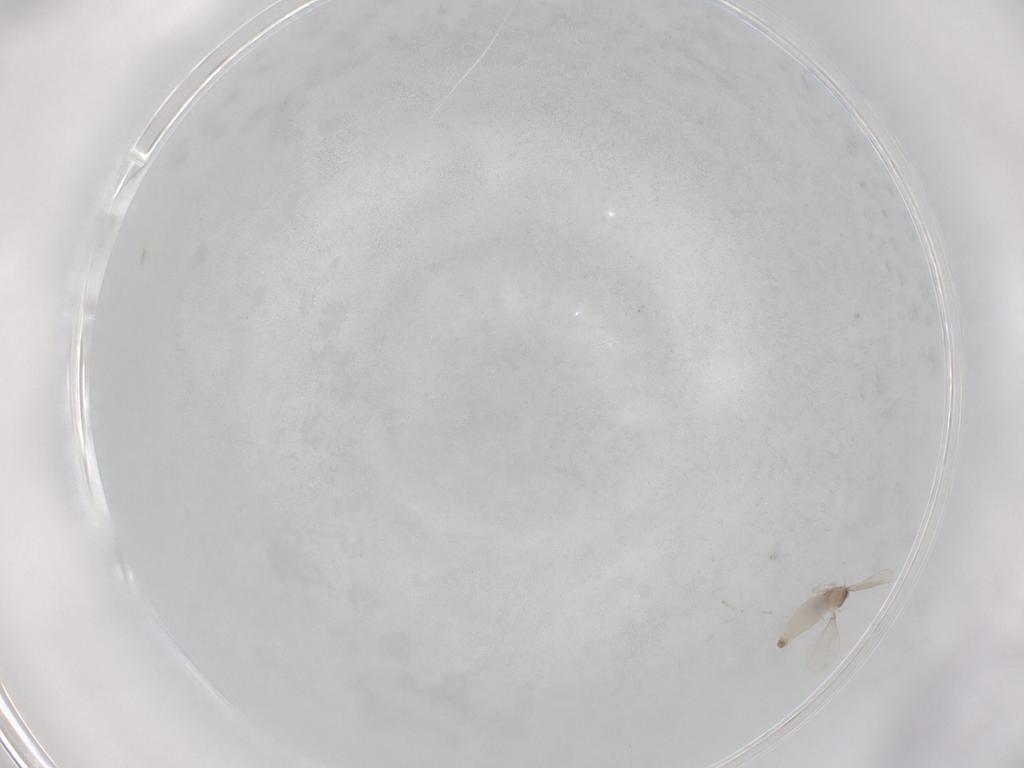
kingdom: Animalia
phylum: Arthropoda
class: Insecta
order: Diptera
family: Cecidomyiidae
